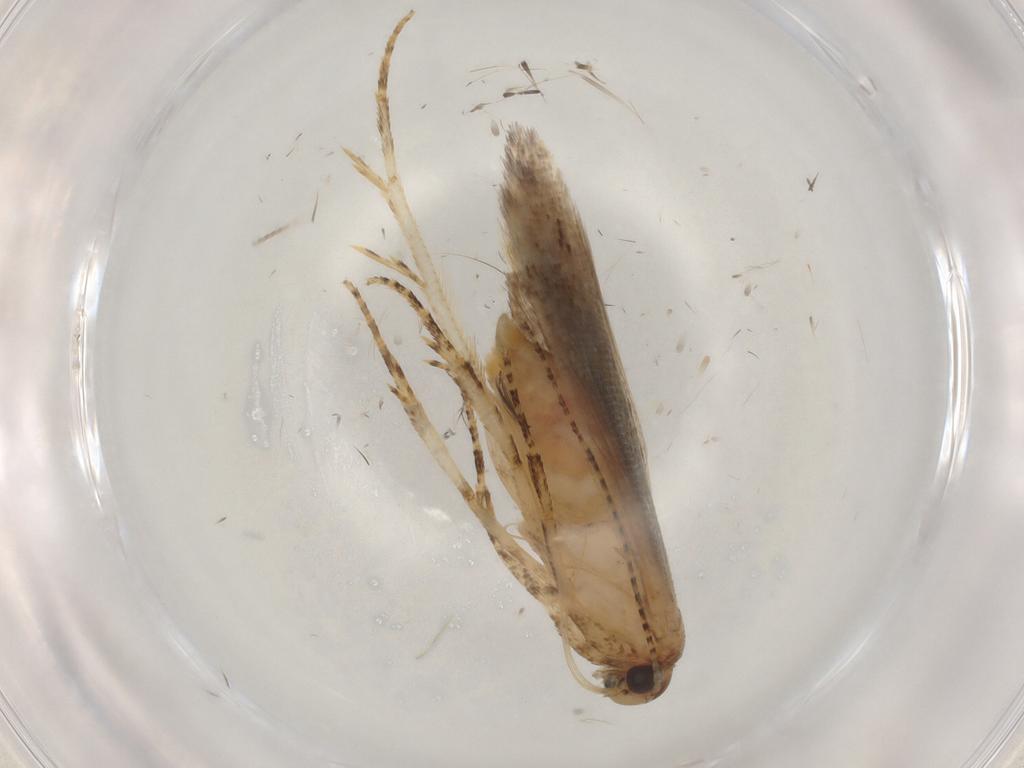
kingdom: Animalia
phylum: Arthropoda
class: Insecta
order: Lepidoptera
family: Gelechiidae
